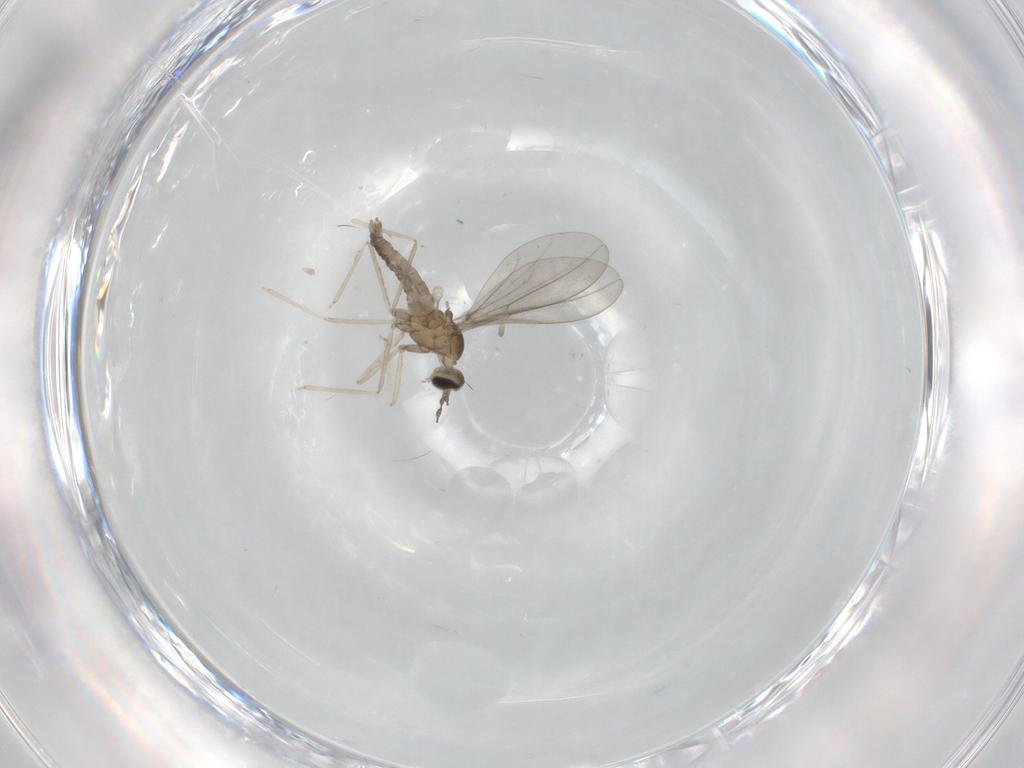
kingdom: Animalia
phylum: Arthropoda
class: Insecta
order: Diptera
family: Cecidomyiidae
